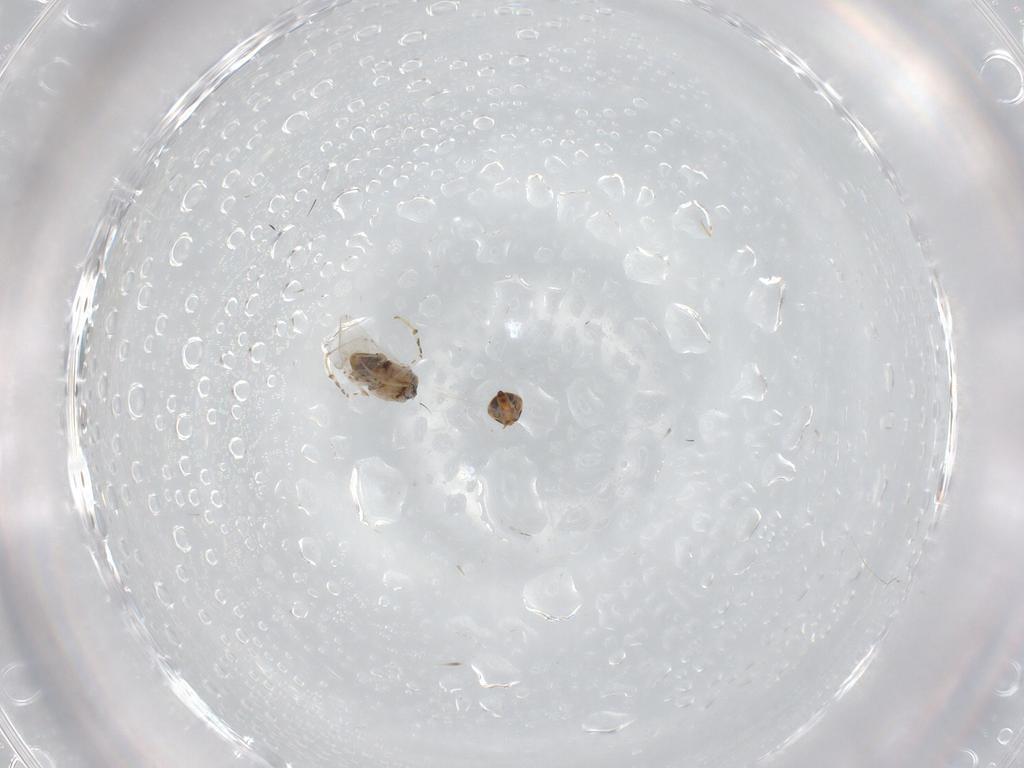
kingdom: Animalia
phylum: Arthropoda
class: Insecta
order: Hymenoptera
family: Encyrtidae
